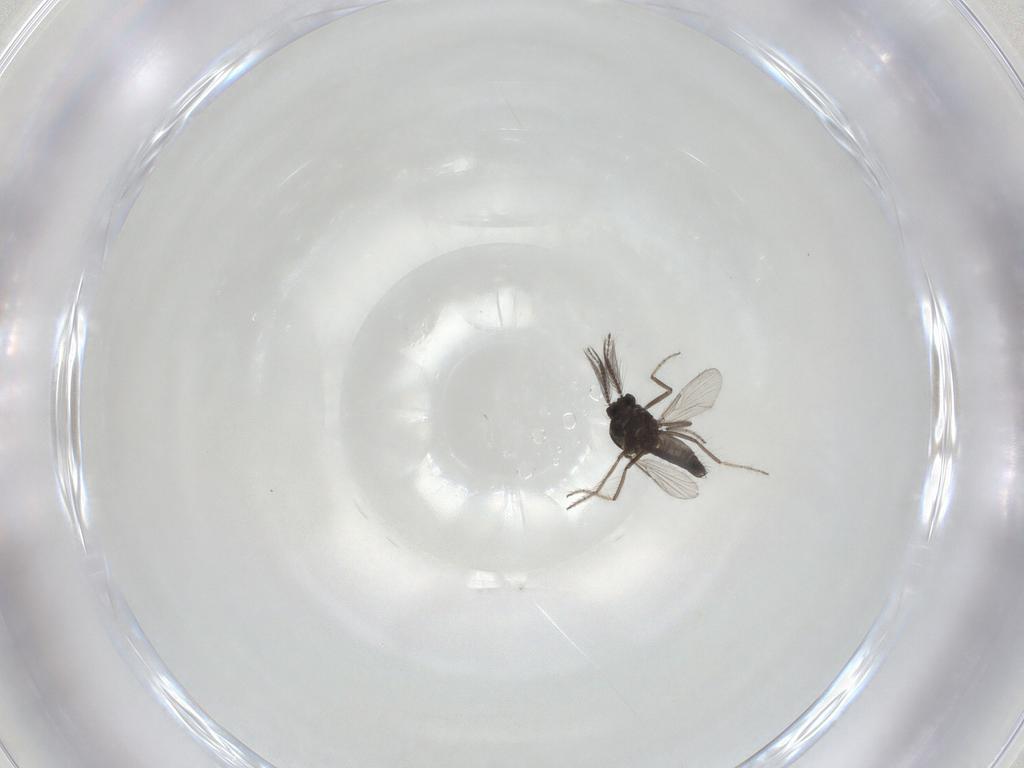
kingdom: Animalia
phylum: Arthropoda
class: Insecta
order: Diptera
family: Ceratopogonidae
